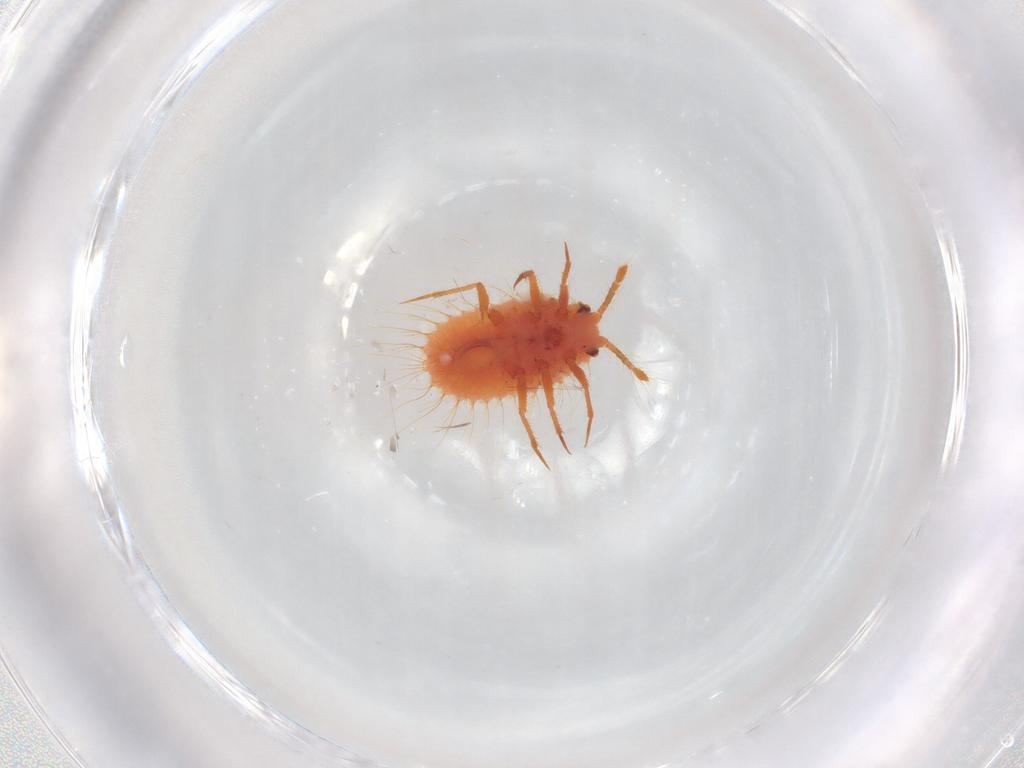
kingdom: Animalia
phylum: Arthropoda
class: Insecta
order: Hemiptera
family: Coccoidea_incertae_sedis
